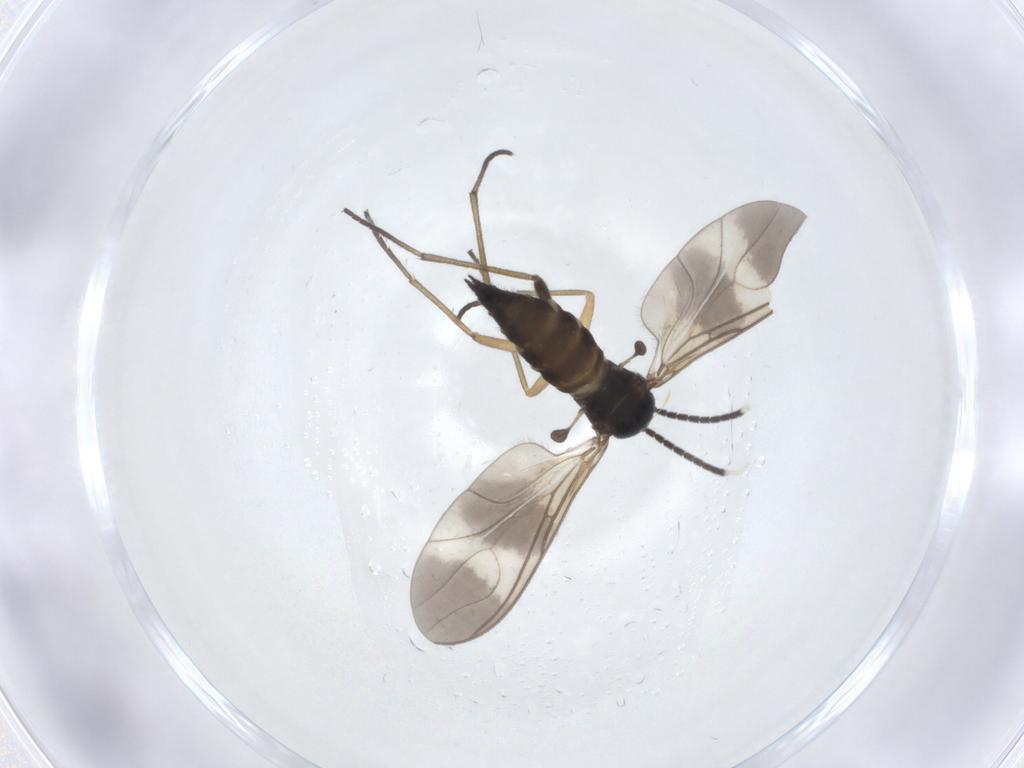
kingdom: Animalia
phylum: Arthropoda
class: Insecta
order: Diptera
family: Sciaridae
